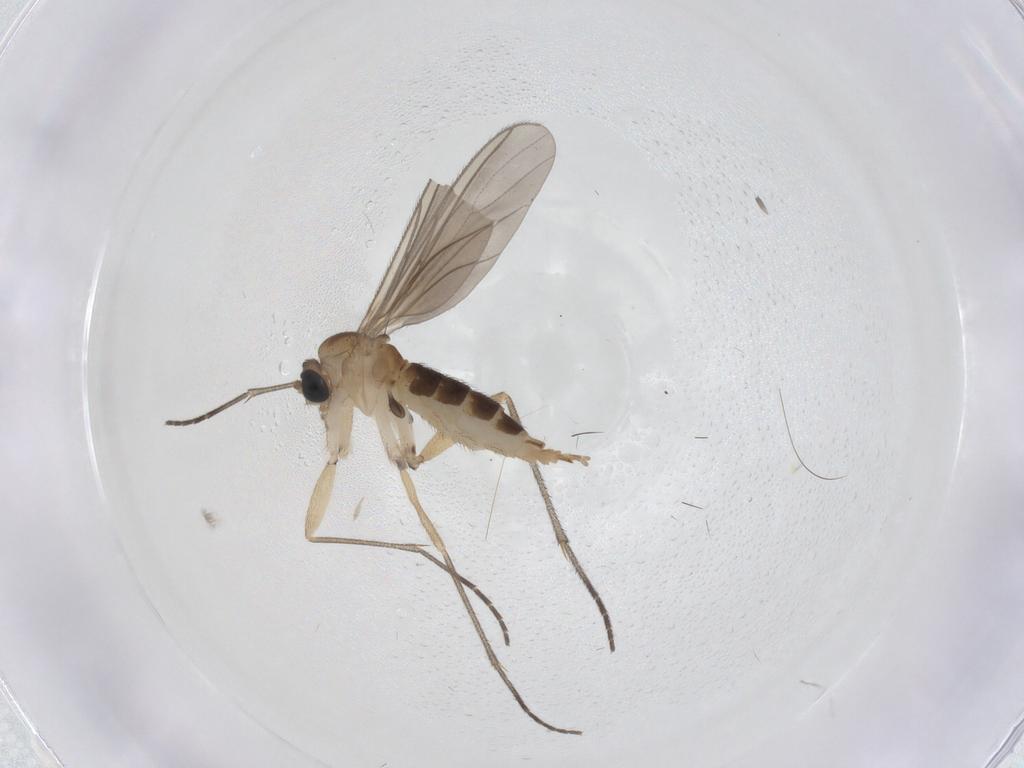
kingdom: Animalia
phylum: Arthropoda
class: Insecta
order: Diptera
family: Sciaridae
